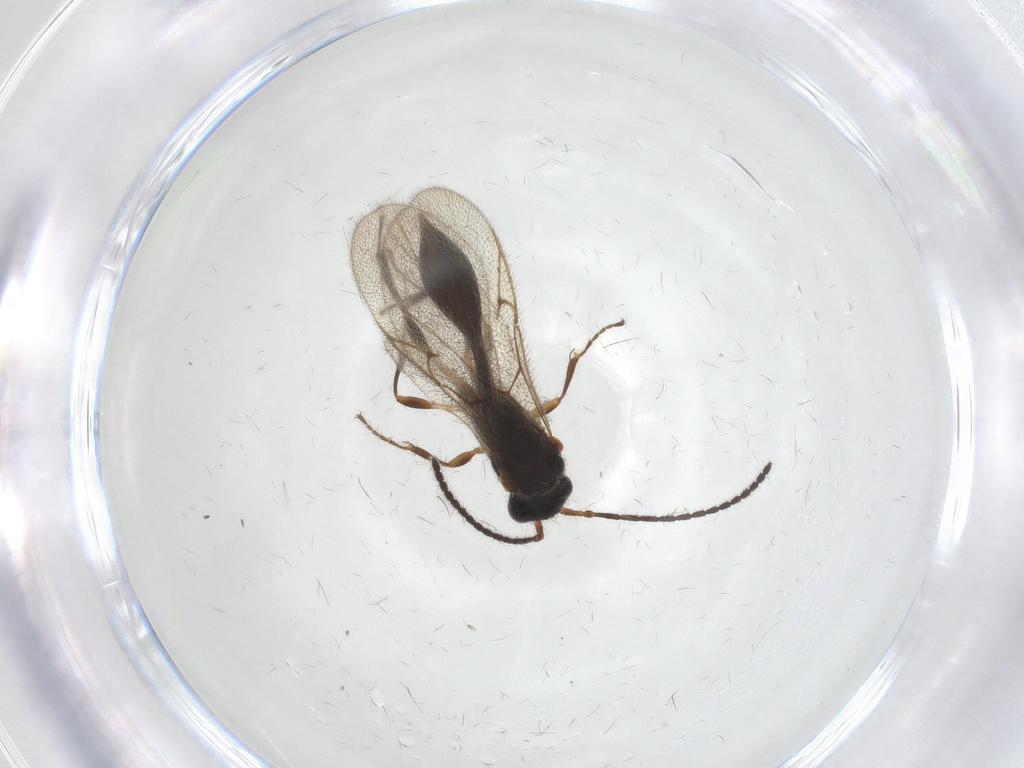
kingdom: Animalia
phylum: Arthropoda
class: Insecta
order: Hymenoptera
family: Diapriidae
